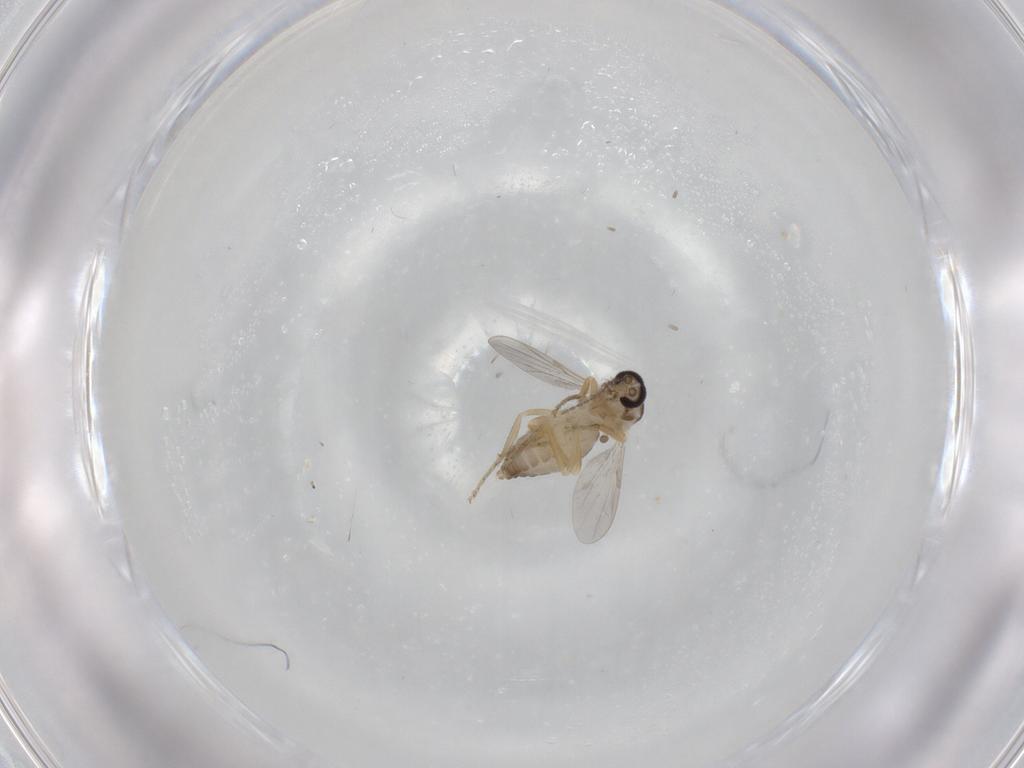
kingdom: Animalia
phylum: Arthropoda
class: Insecta
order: Diptera
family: Ceratopogonidae
